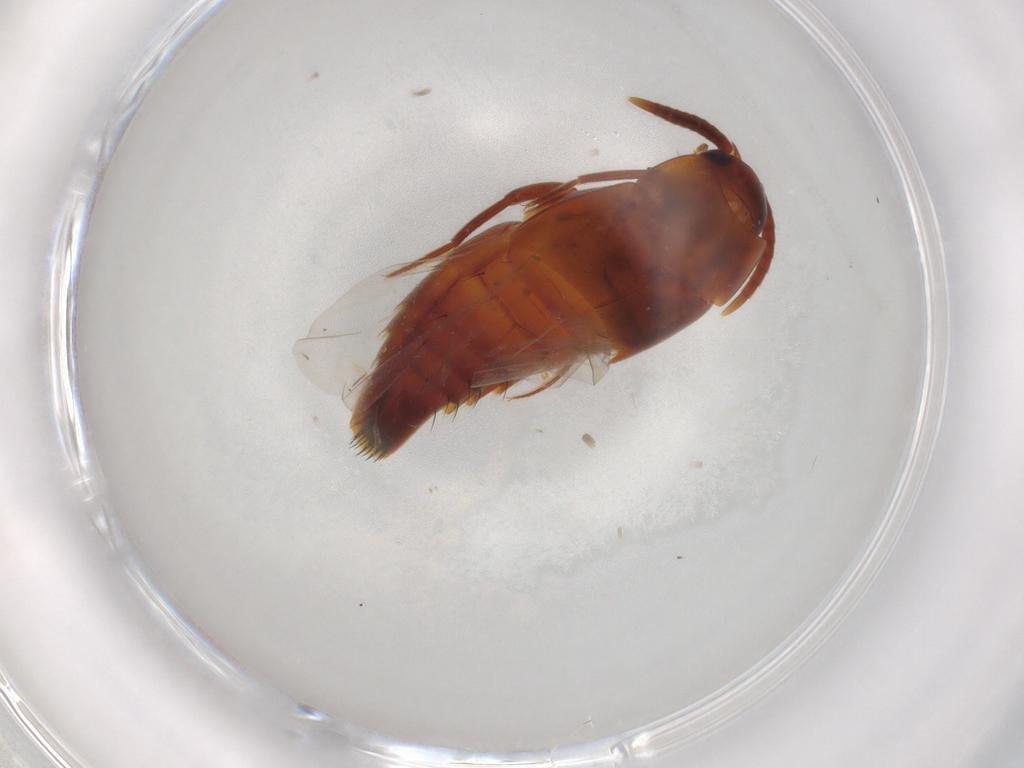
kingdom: Animalia
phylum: Arthropoda
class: Insecta
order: Coleoptera
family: Staphylinidae
